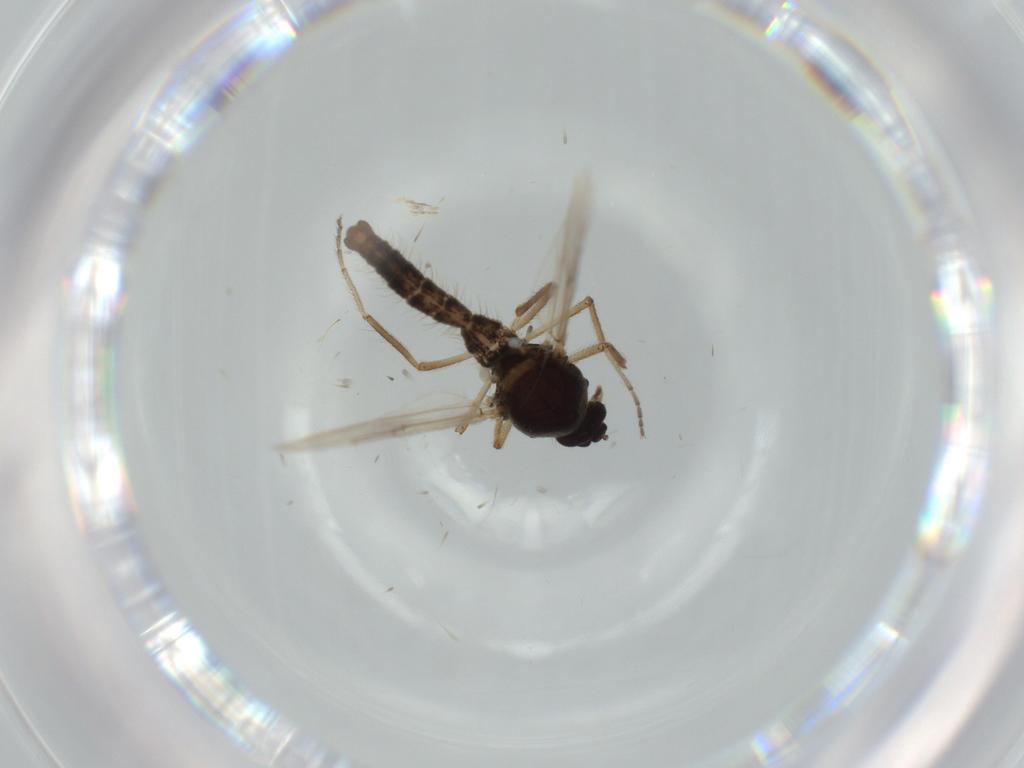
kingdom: Animalia
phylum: Arthropoda
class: Insecta
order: Diptera
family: Ceratopogonidae
